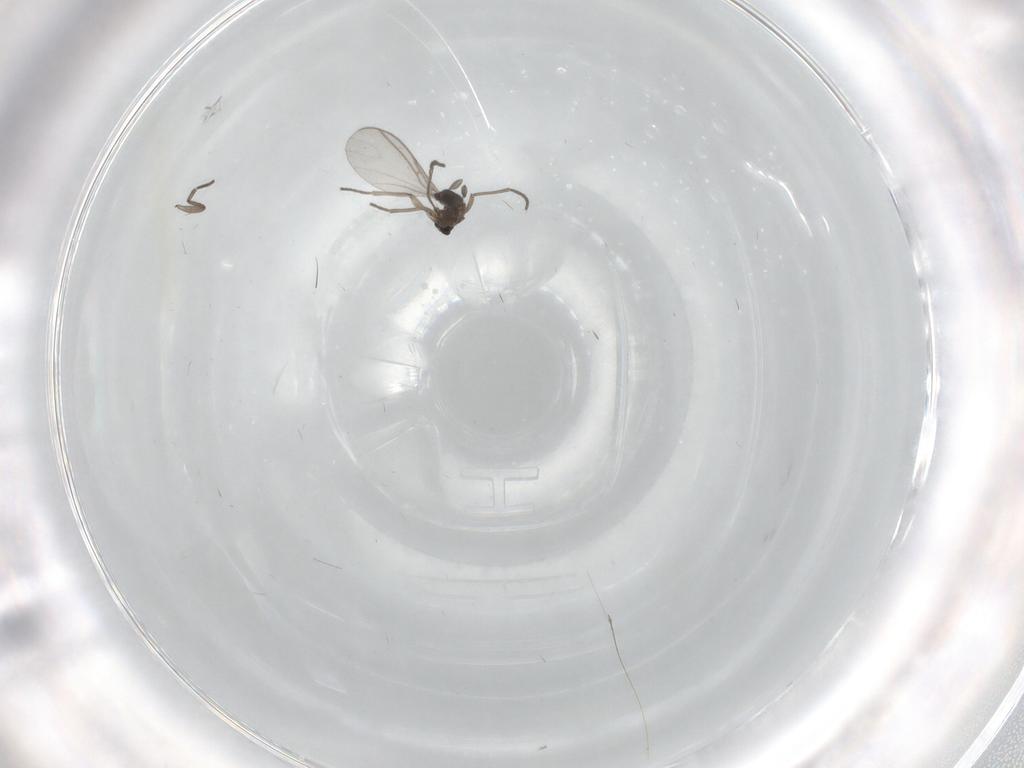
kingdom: Animalia
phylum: Arthropoda
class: Insecta
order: Diptera
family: Sciaridae
